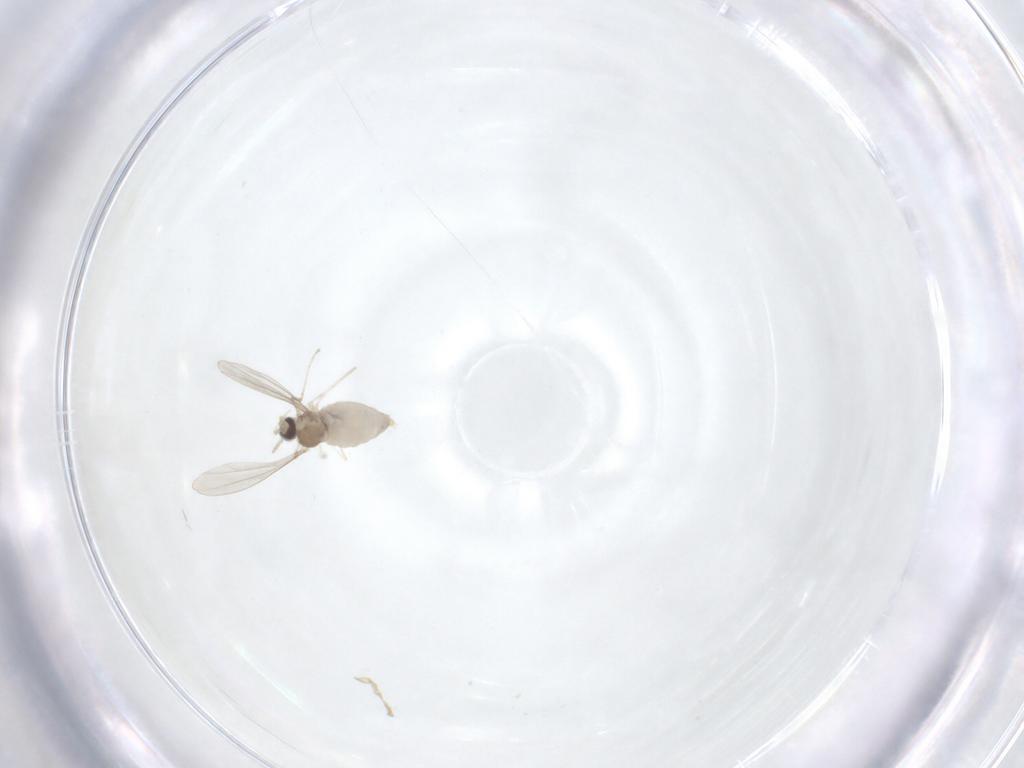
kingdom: Animalia
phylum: Arthropoda
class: Insecta
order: Diptera
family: Cecidomyiidae
